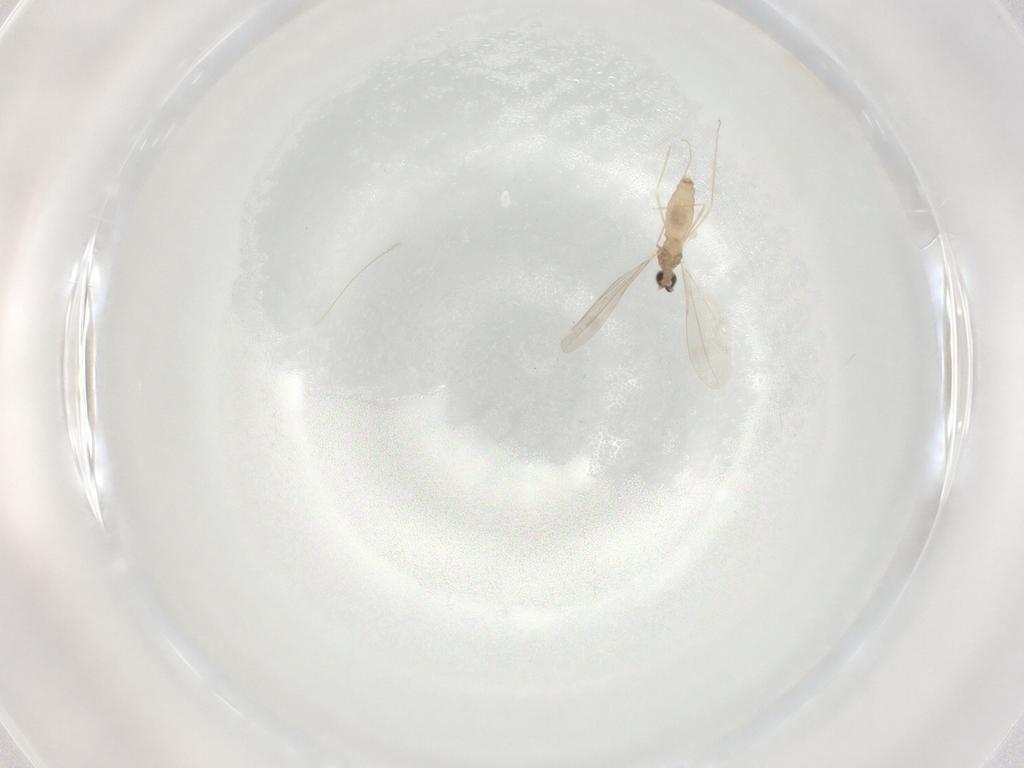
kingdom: Animalia
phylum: Arthropoda
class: Insecta
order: Diptera
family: Cecidomyiidae
